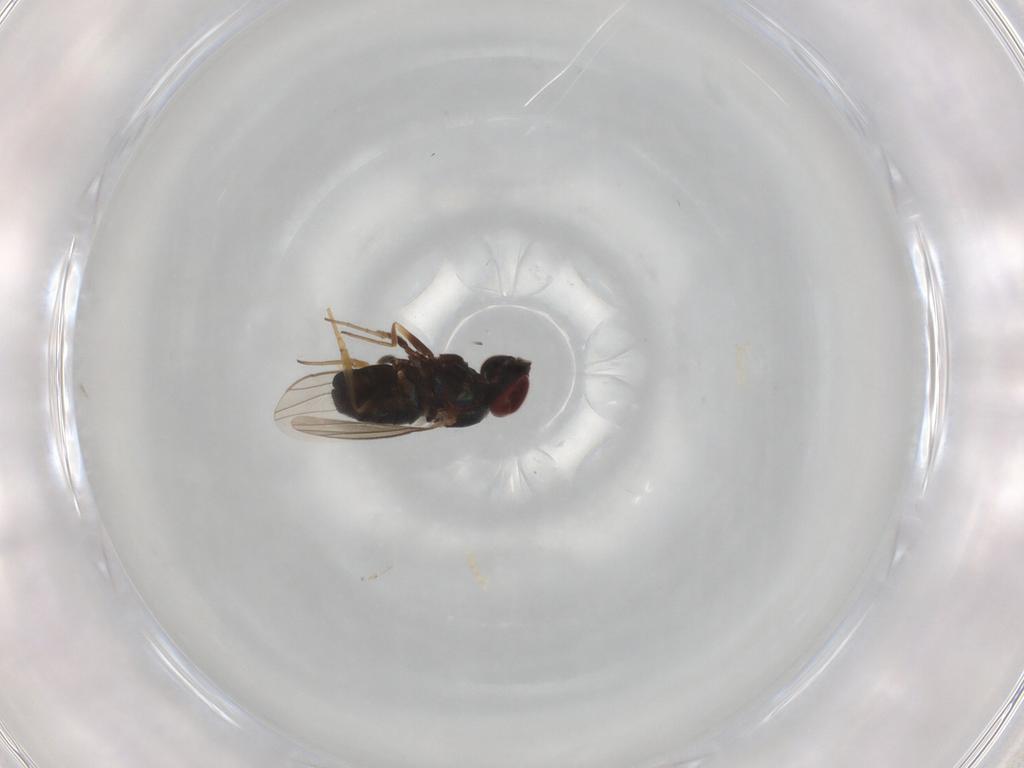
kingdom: Animalia
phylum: Arthropoda
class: Insecta
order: Diptera
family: Dolichopodidae
